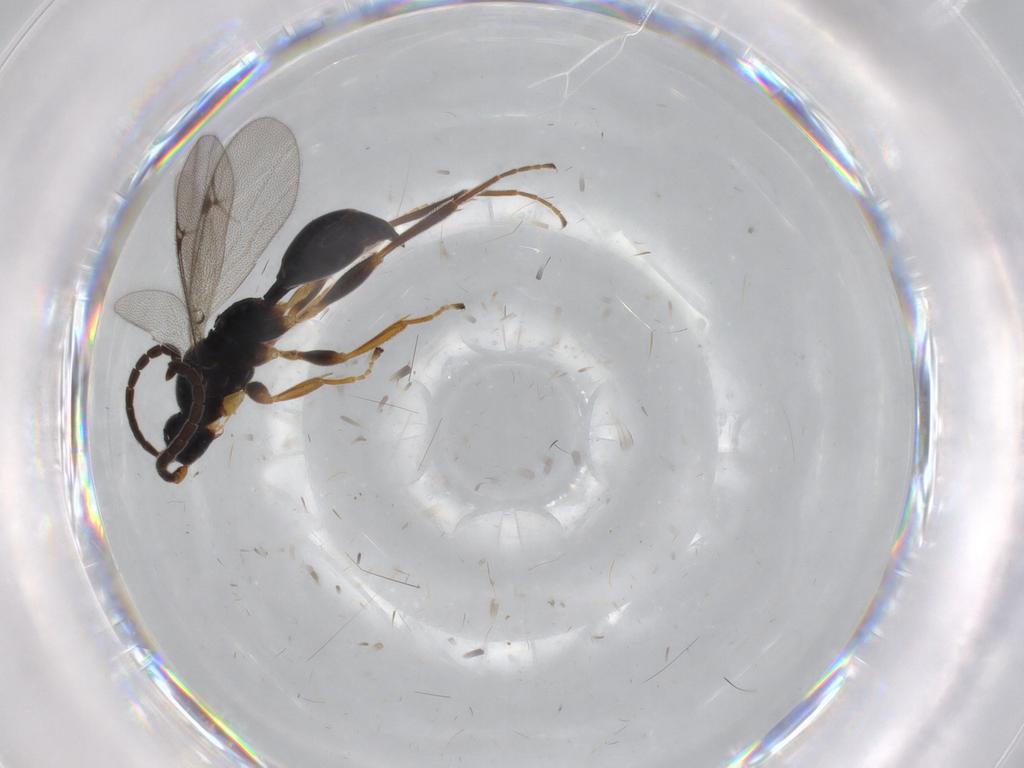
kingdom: Animalia
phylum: Arthropoda
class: Insecta
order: Hymenoptera
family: Proctotrupidae
